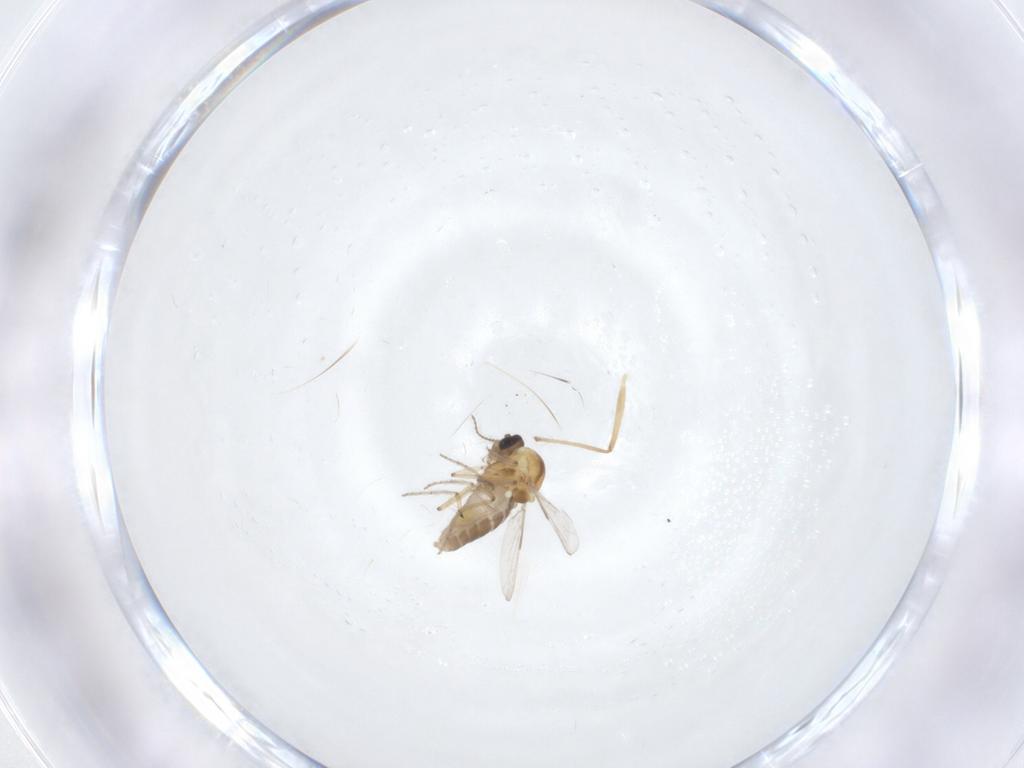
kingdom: Animalia
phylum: Arthropoda
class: Insecta
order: Diptera
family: Ceratopogonidae
